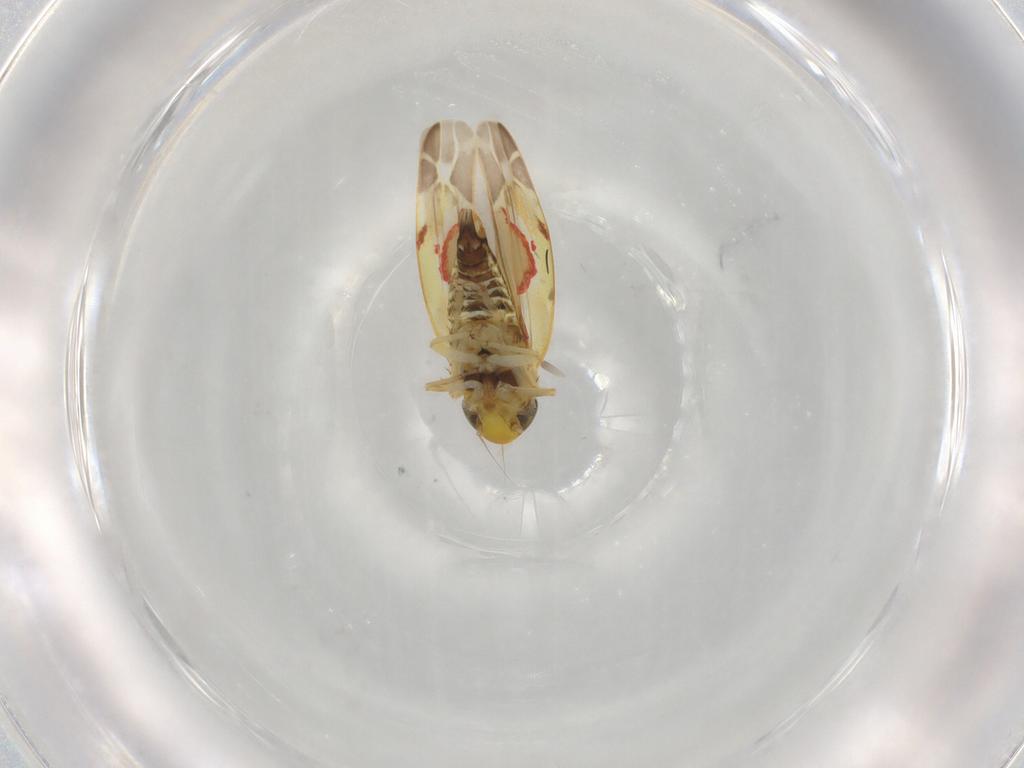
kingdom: Animalia
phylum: Arthropoda
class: Insecta
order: Hemiptera
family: Cicadellidae
